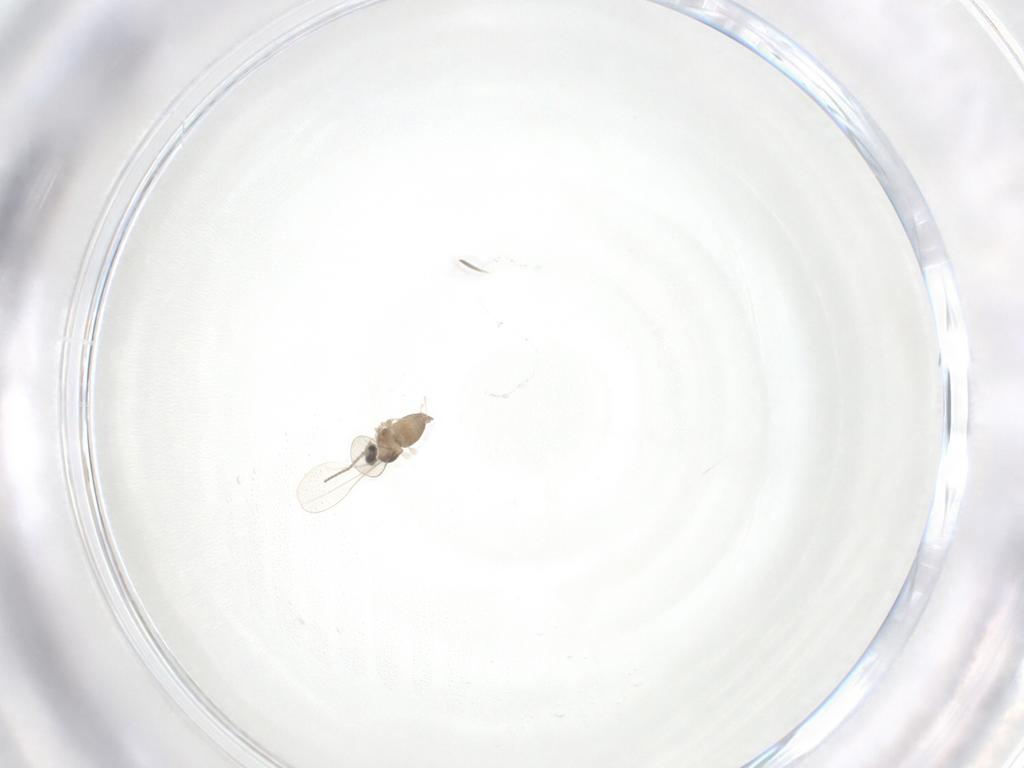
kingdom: Animalia
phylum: Arthropoda
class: Insecta
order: Diptera
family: Cecidomyiidae
